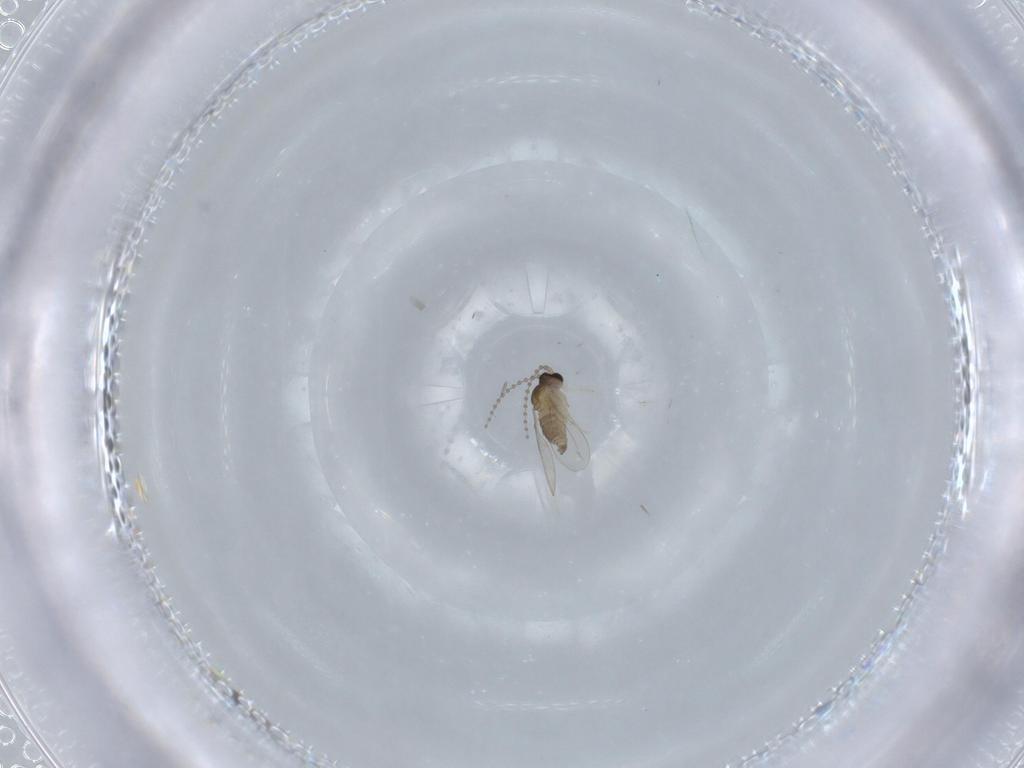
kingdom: Animalia
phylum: Arthropoda
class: Insecta
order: Diptera
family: Cecidomyiidae
